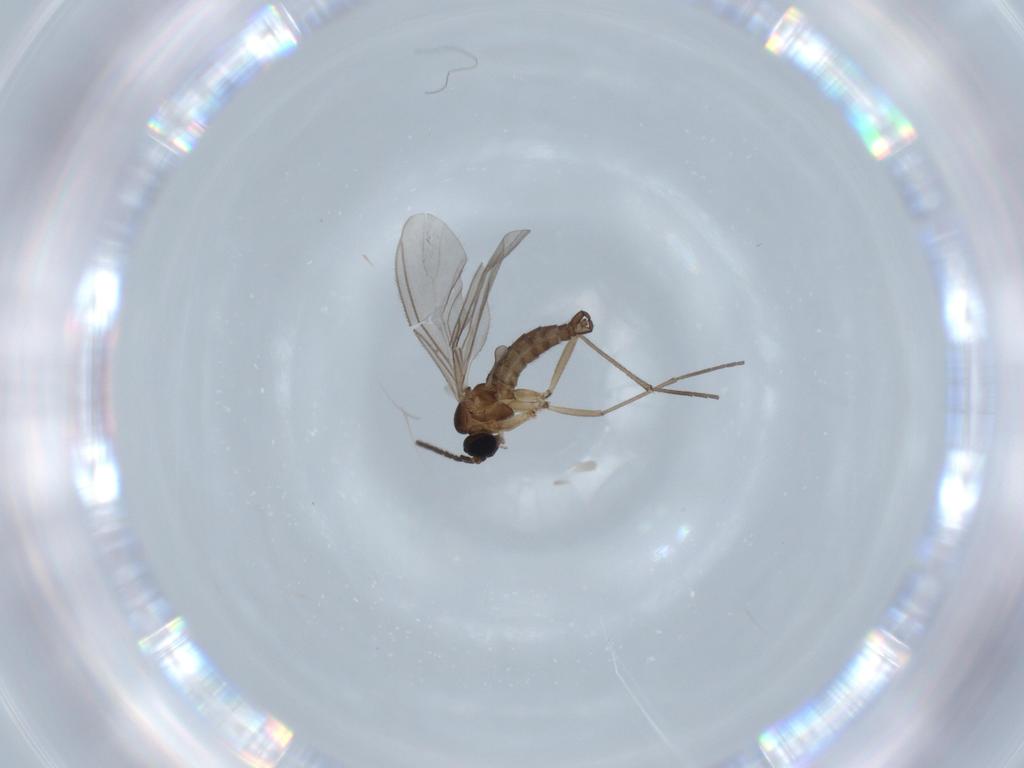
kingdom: Animalia
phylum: Arthropoda
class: Insecta
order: Diptera
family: Sciaridae
